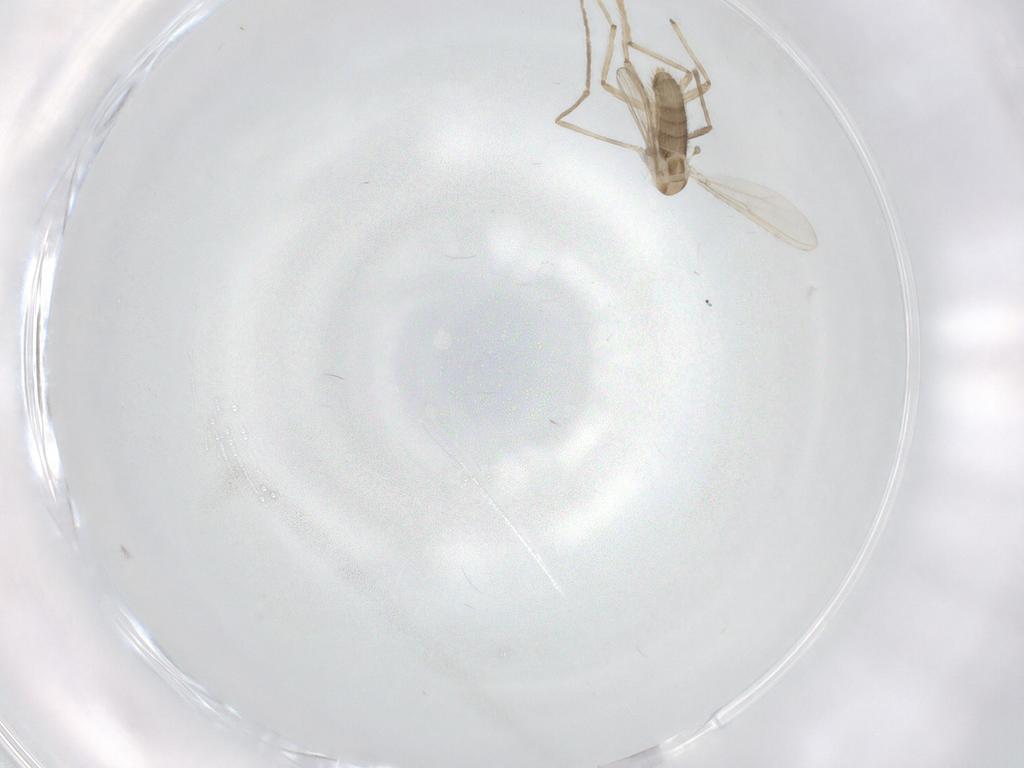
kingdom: Animalia
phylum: Arthropoda
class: Insecta
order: Diptera
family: Chironomidae
